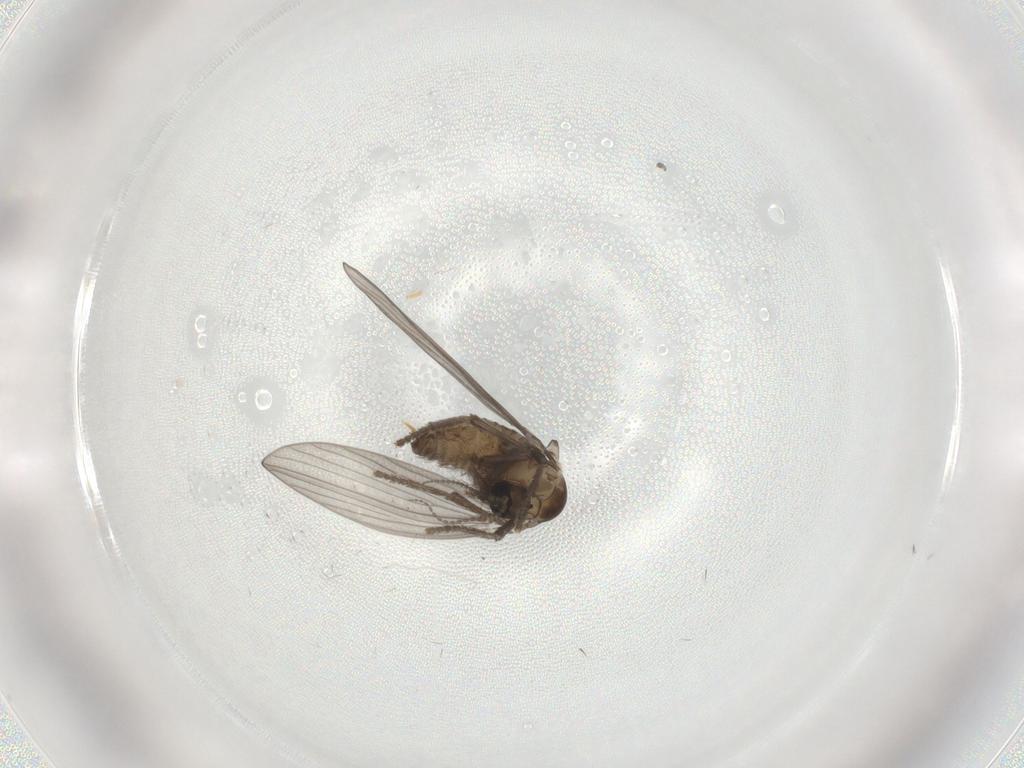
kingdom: Animalia
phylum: Arthropoda
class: Insecta
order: Diptera
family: Psychodidae
